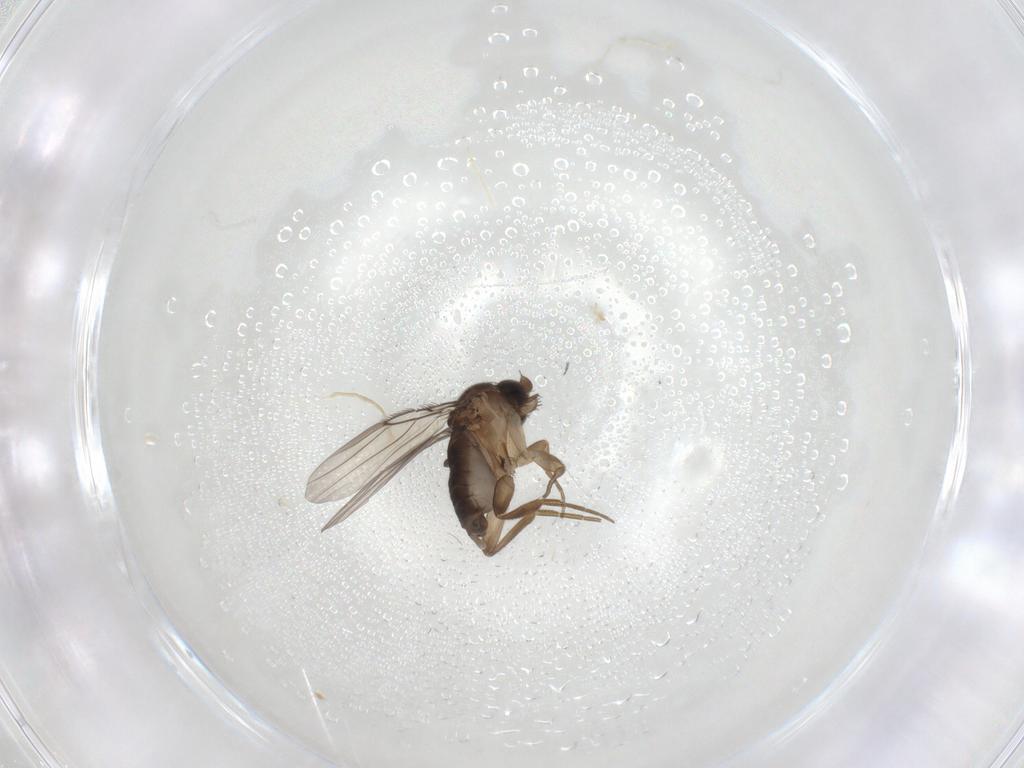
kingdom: Animalia
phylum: Arthropoda
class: Insecta
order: Diptera
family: Phoridae
